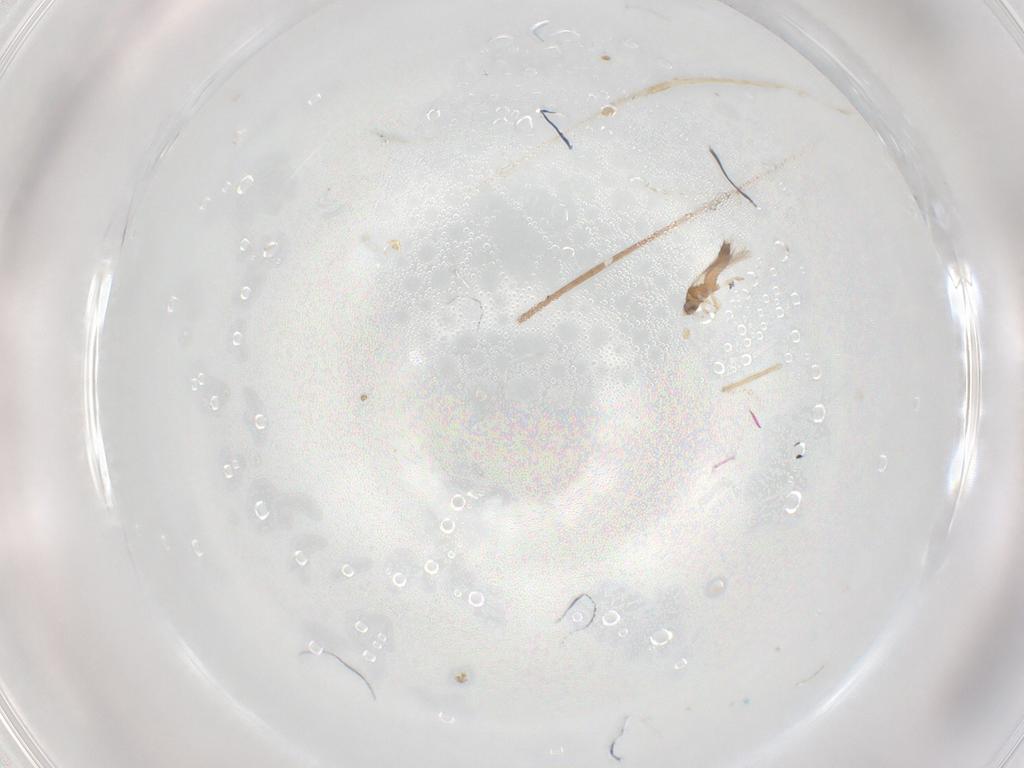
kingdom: Animalia
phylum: Arthropoda
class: Insecta
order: Thysanoptera
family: Thripidae
